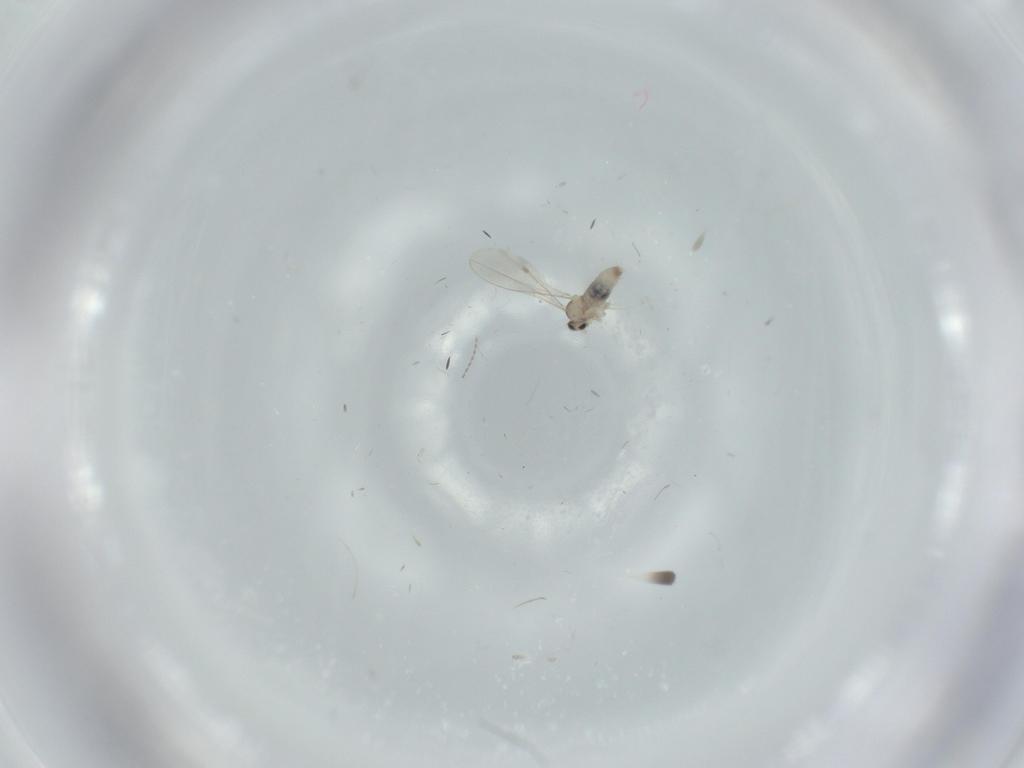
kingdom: Animalia
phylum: Arthropoda
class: Insecta
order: Diptera
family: Cecidomyiidae
